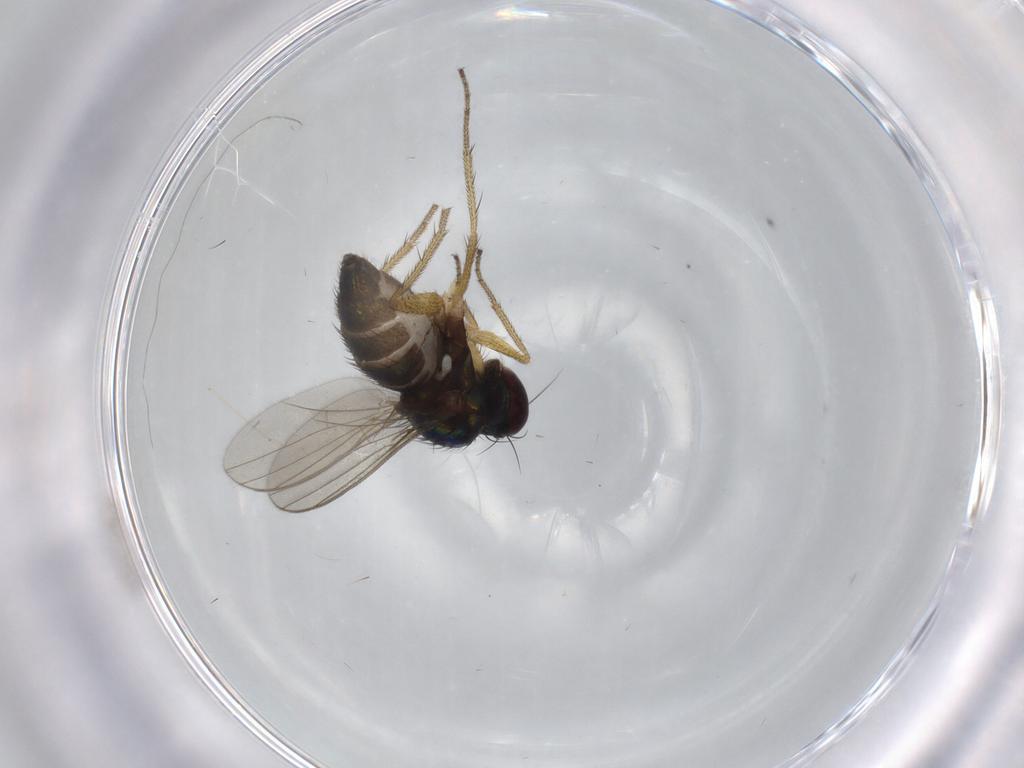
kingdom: Animalia
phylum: Arthropoda
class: Insecta
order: Diptera
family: Cecidomyiidae
